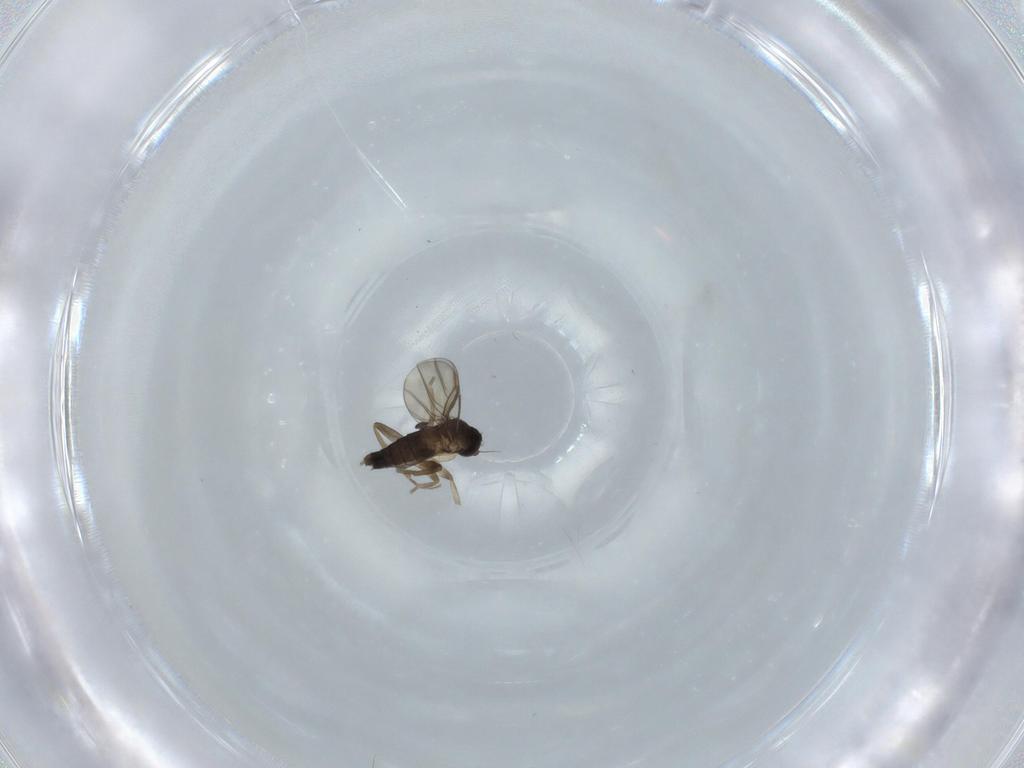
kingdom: Animalia
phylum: Arthropoda
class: Insecta
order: Diptera
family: Phoridae
